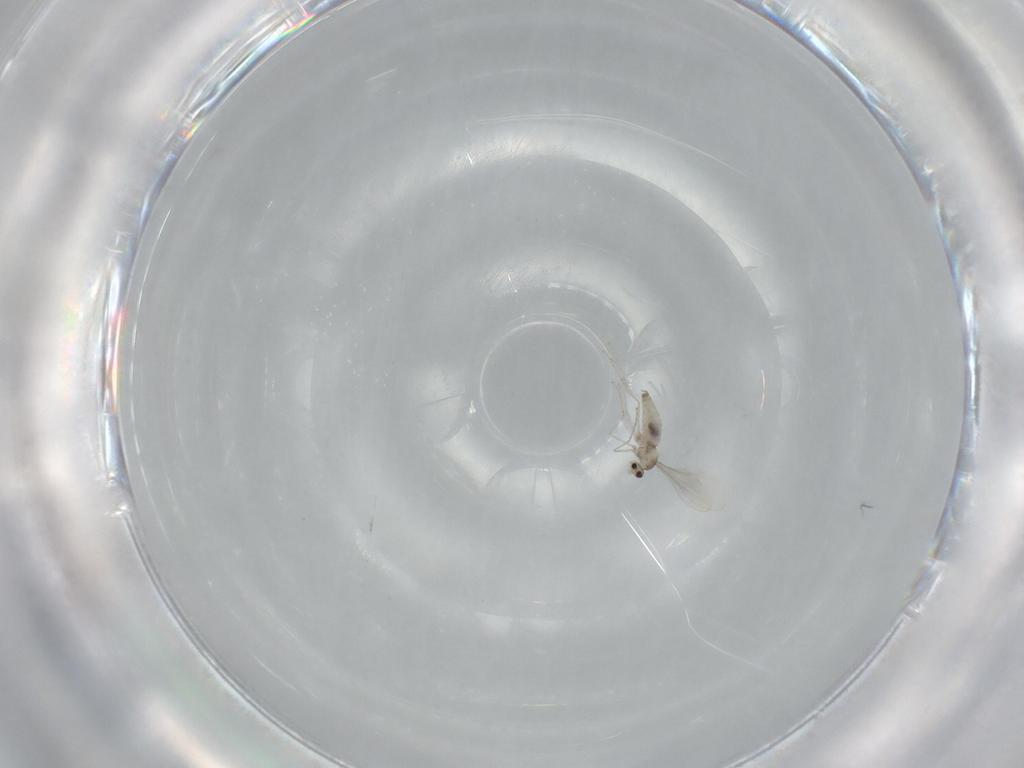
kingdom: Animalia
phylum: Arthropoda
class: Insecta
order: Diptera
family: Cecidomyiidae
